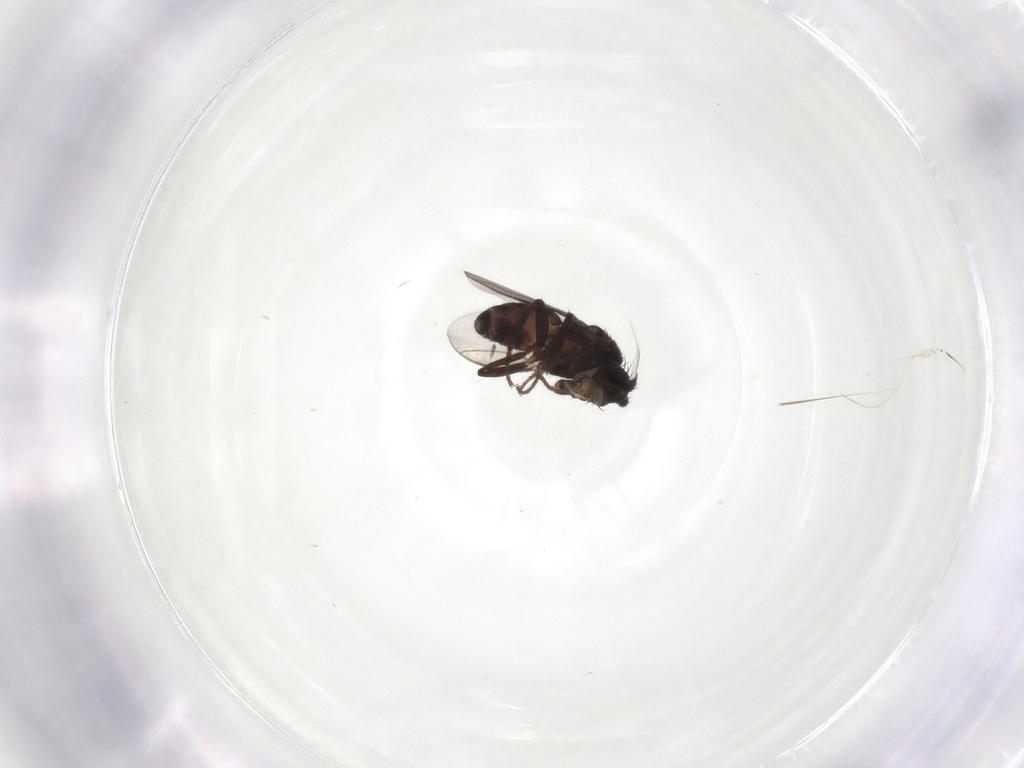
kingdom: Animalia
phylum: Arthropoda
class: Insecta
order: Diptera
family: Sphaeroceridae
